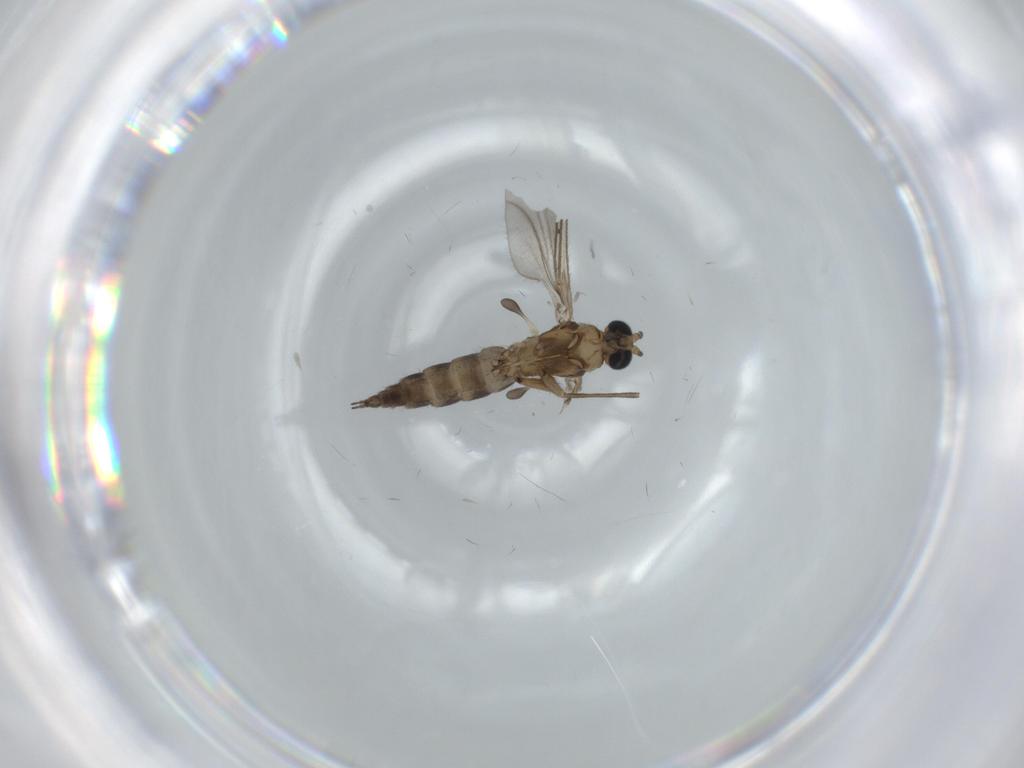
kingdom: Animalia
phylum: Arthropoda
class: Insecta
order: Diptera
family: Sciaridae
